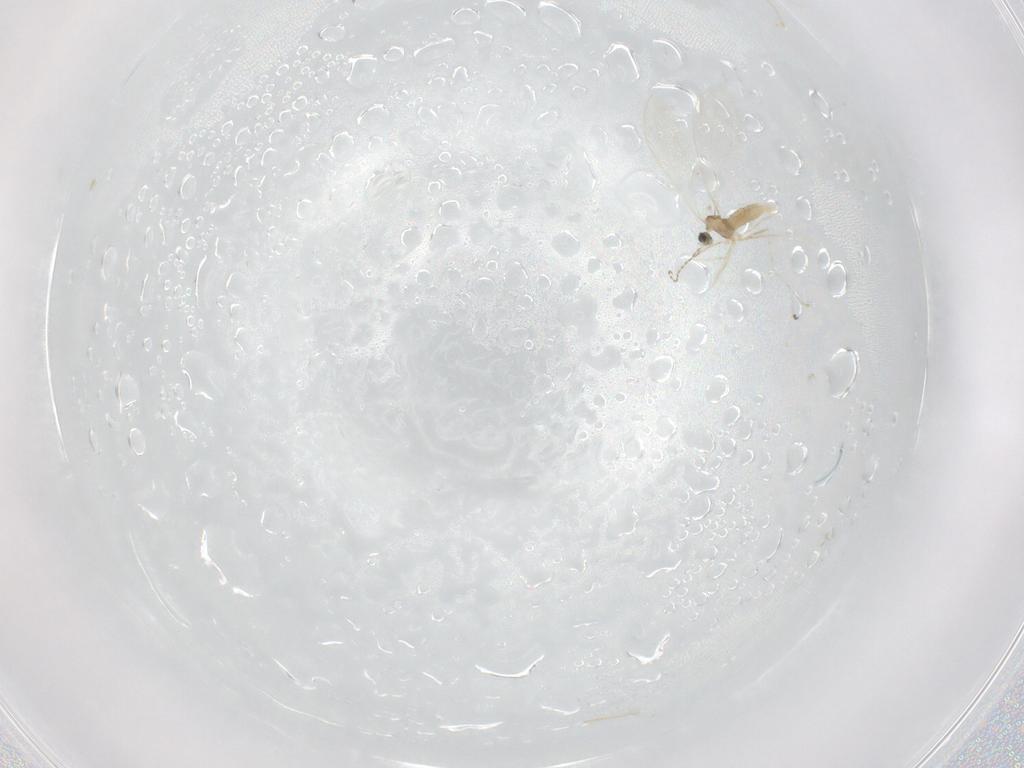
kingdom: Animalia
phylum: Arthropoda
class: Insecta
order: Diptera
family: Cecidomyiidae
